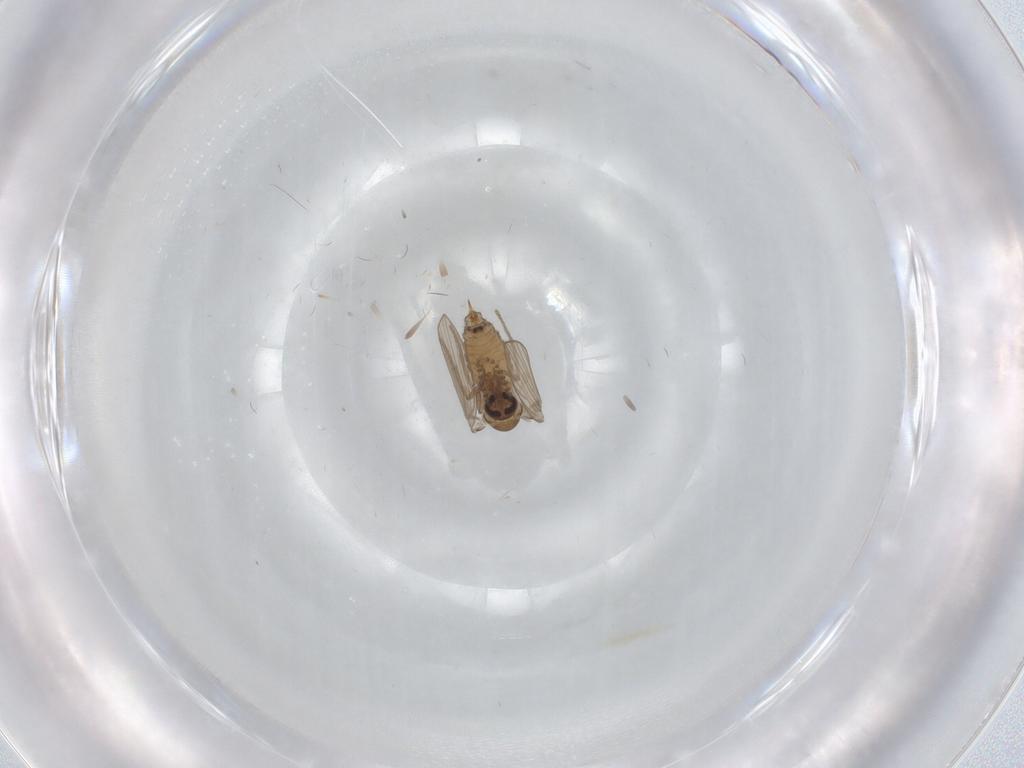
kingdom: Animalia
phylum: Arthropoda
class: Insecta
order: Diptera
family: Psychodidae
